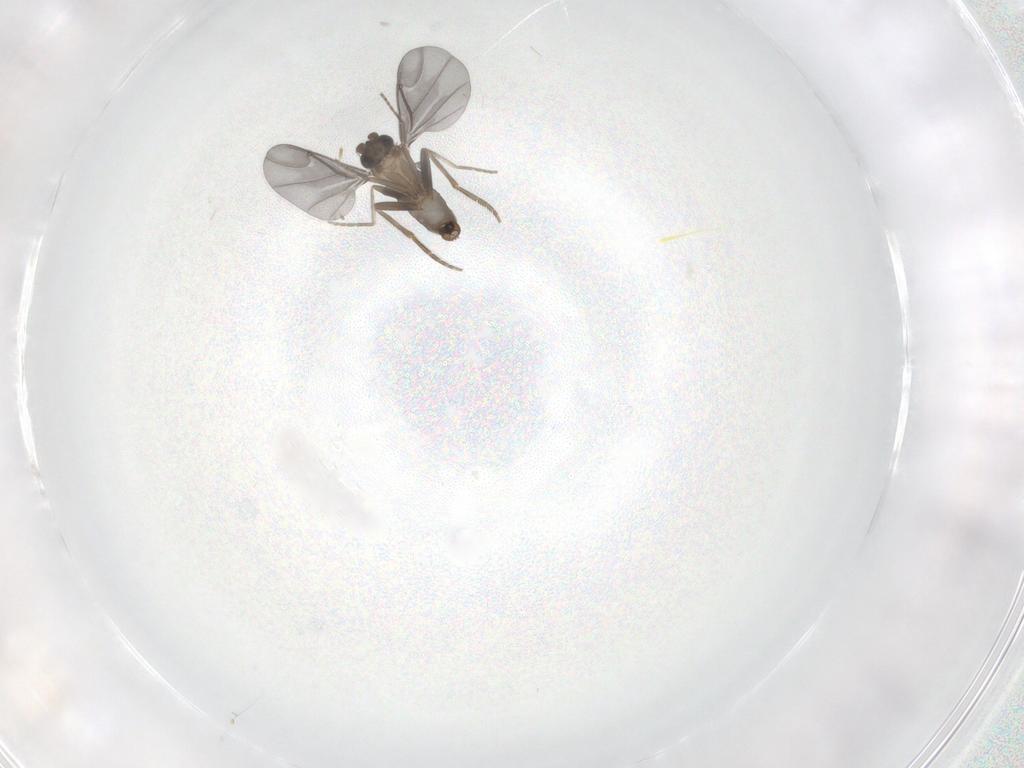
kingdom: Animalia
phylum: Arthropoda
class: Insecta
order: Diptera
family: Phoridae
